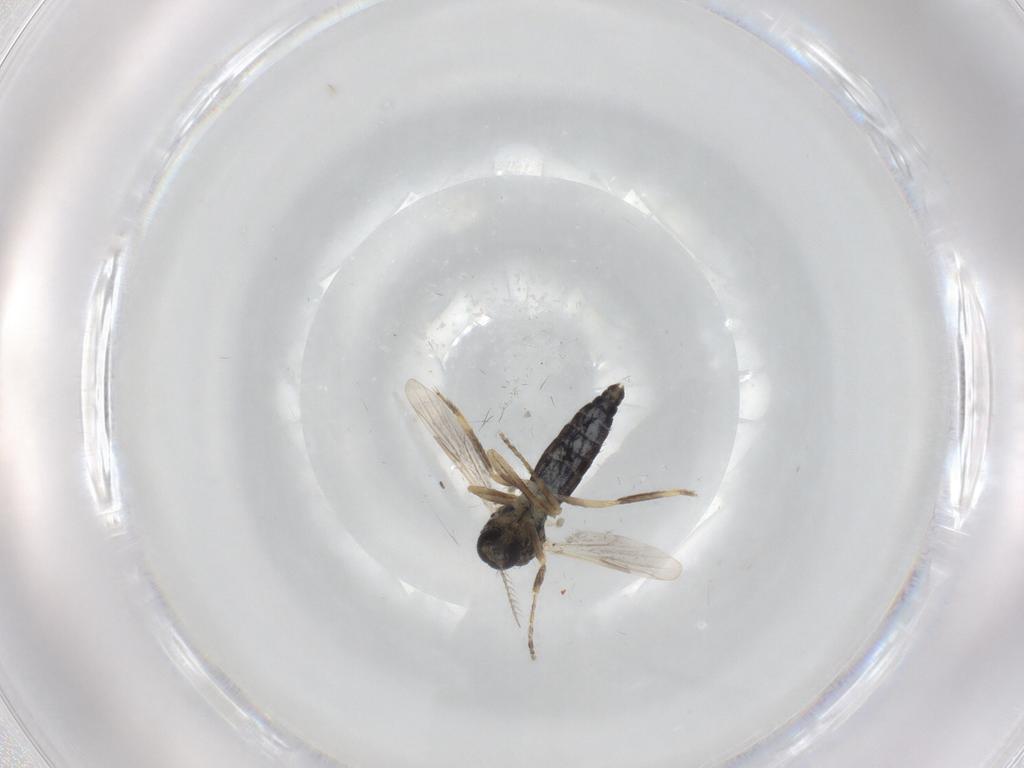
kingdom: Animalia
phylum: Arthropoda
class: Insecta
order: Diptera
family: Ceratopogonidae
